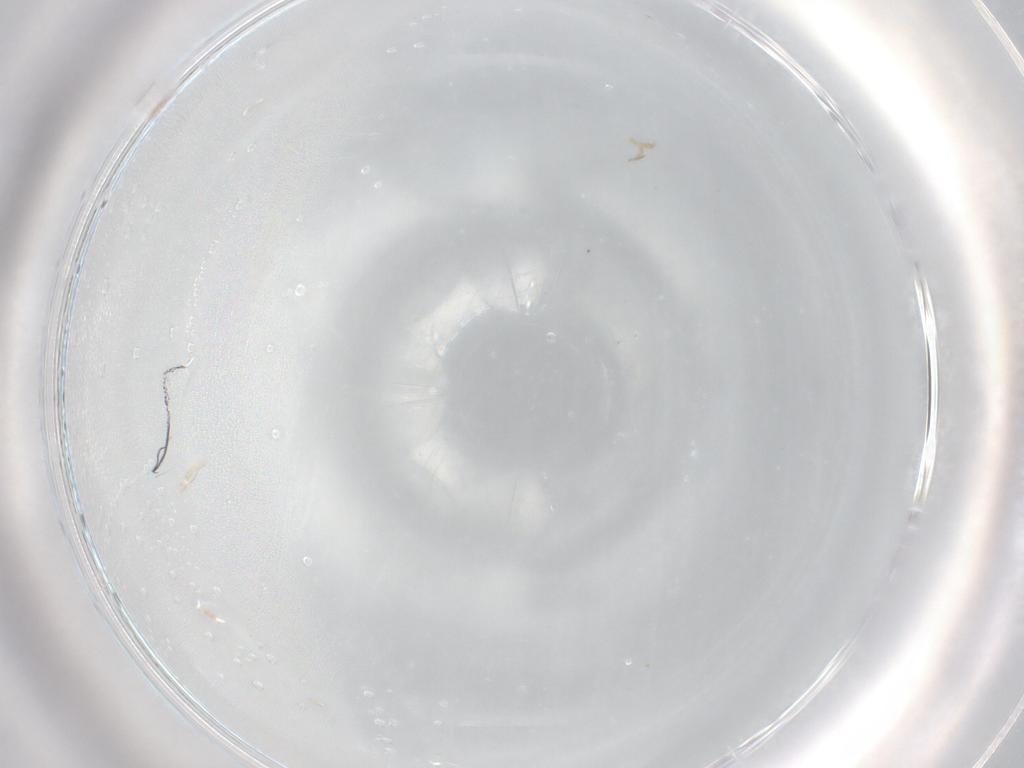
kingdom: Animalia
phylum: Arthropoda
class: Insecta
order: Diptera
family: Keroplatidae
